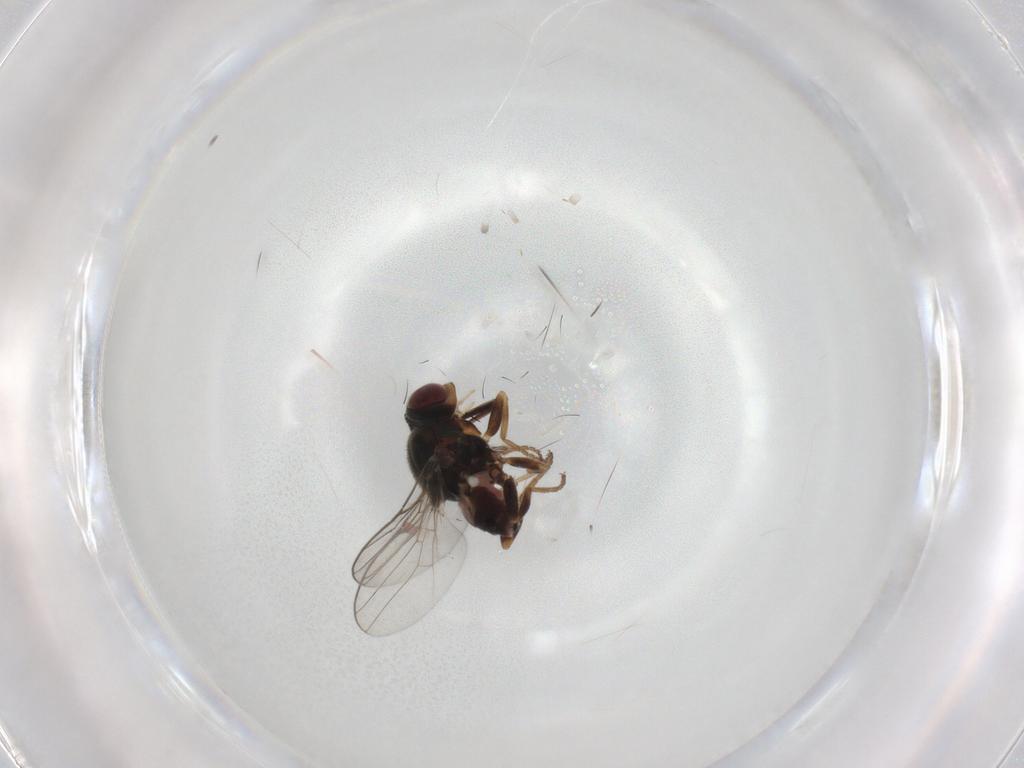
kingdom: Animalia
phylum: Arthropoda
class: Insecta
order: Diptera
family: Chloropidae
